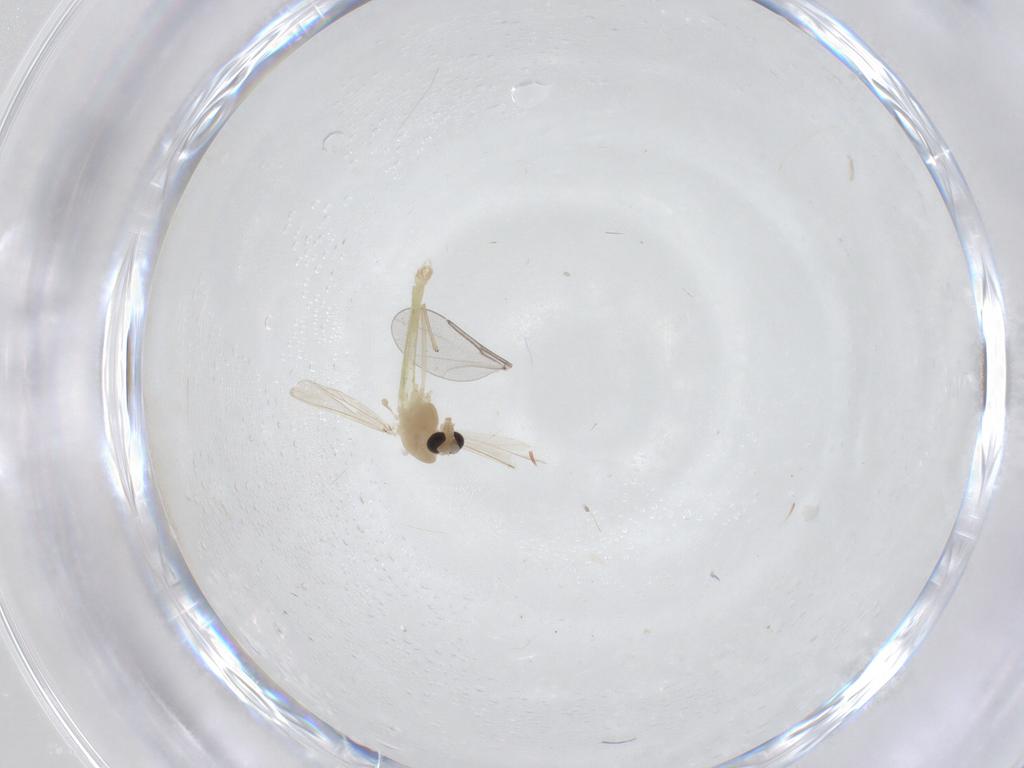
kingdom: Animalia
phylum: Arthropoda
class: Insecta
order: Diptera
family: Chironomidae
